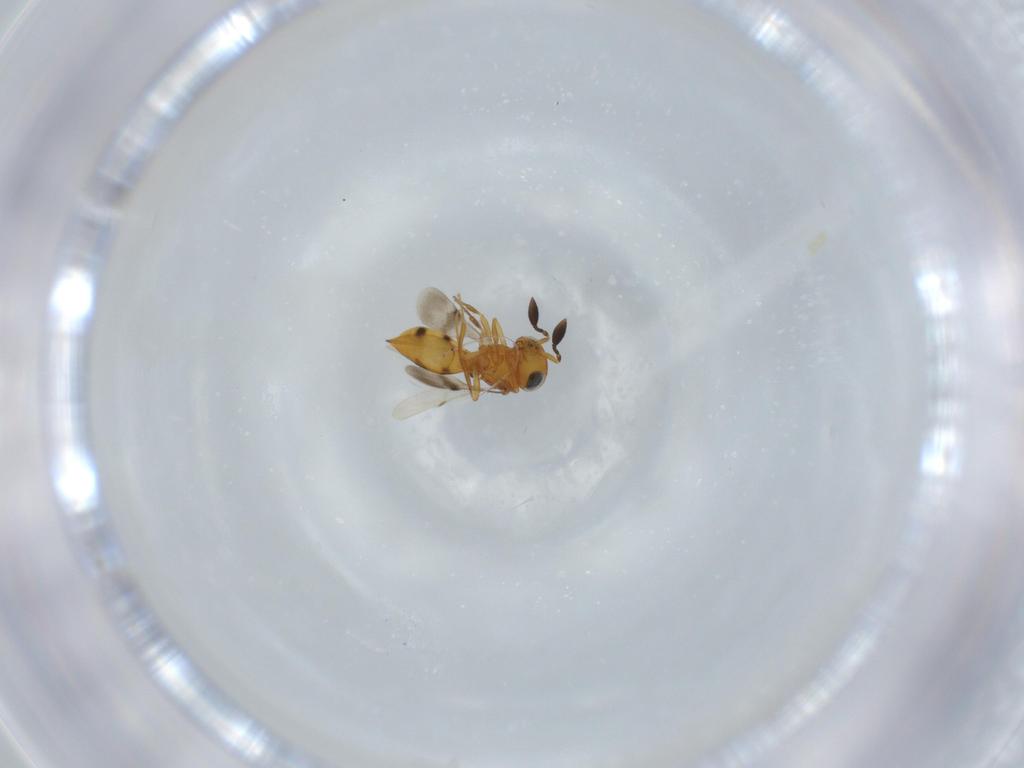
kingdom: Animalia
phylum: Arthropoda
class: Insecta
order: Hymenoptera
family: Scelionidae
